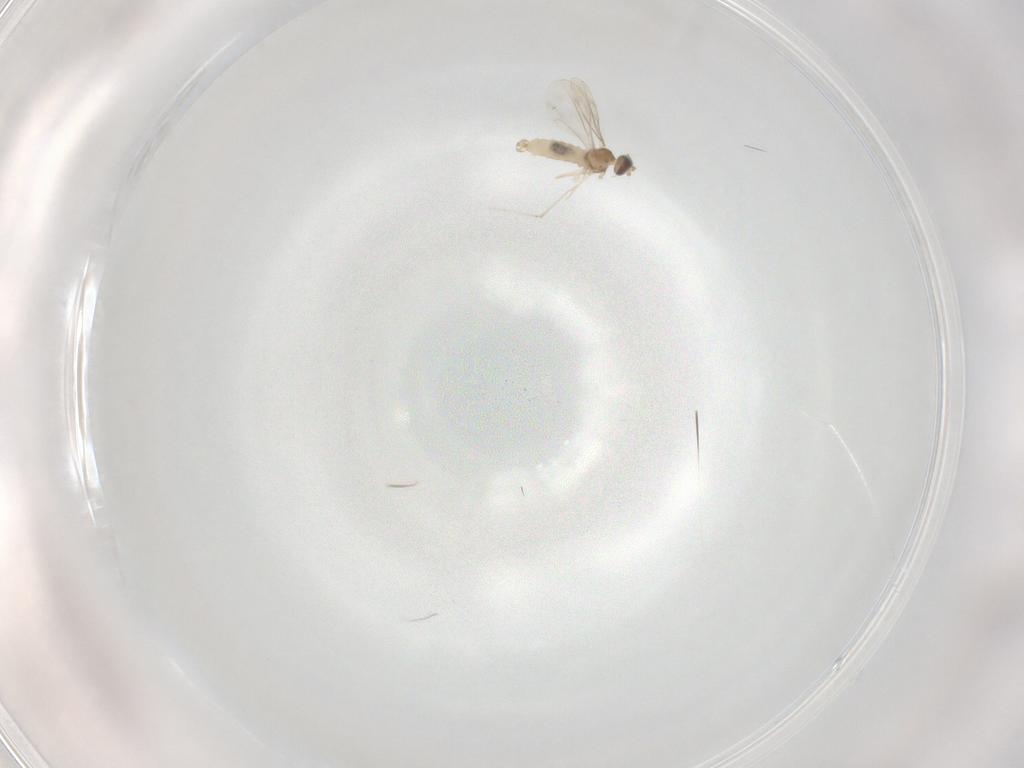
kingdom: Animalia
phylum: Arthropoda
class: Insecta
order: Diptera
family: Cecidomyiidae
